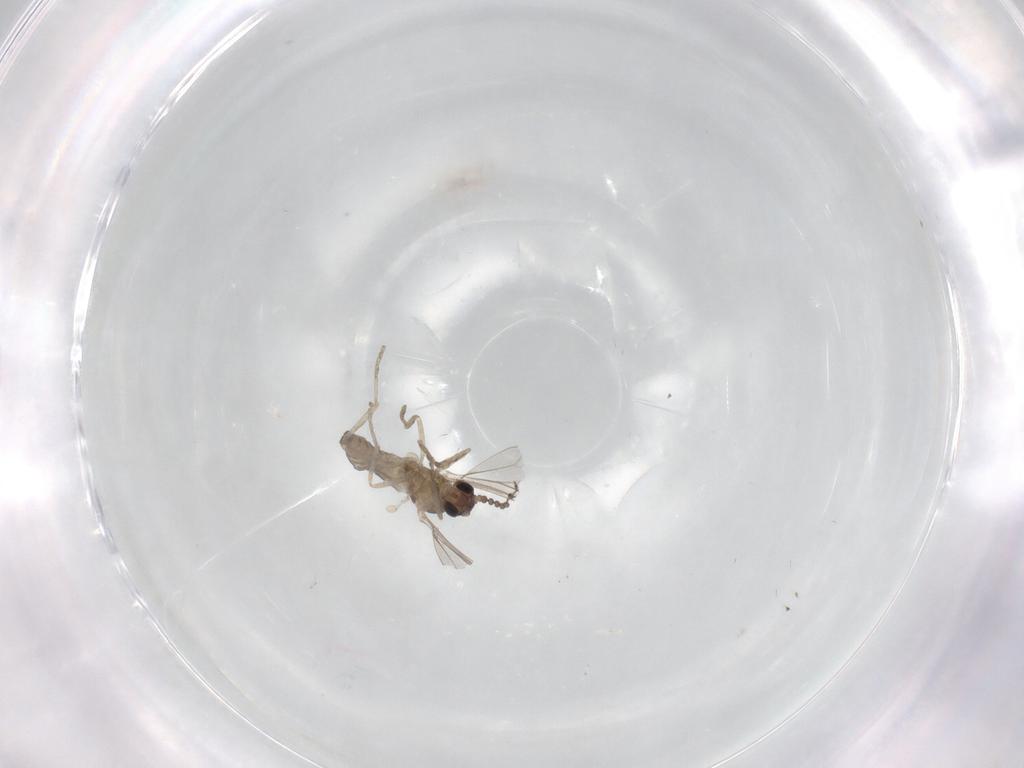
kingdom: Animalia
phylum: Arthropoda
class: Insecta
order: Diptera
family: Cecidomyiidae
